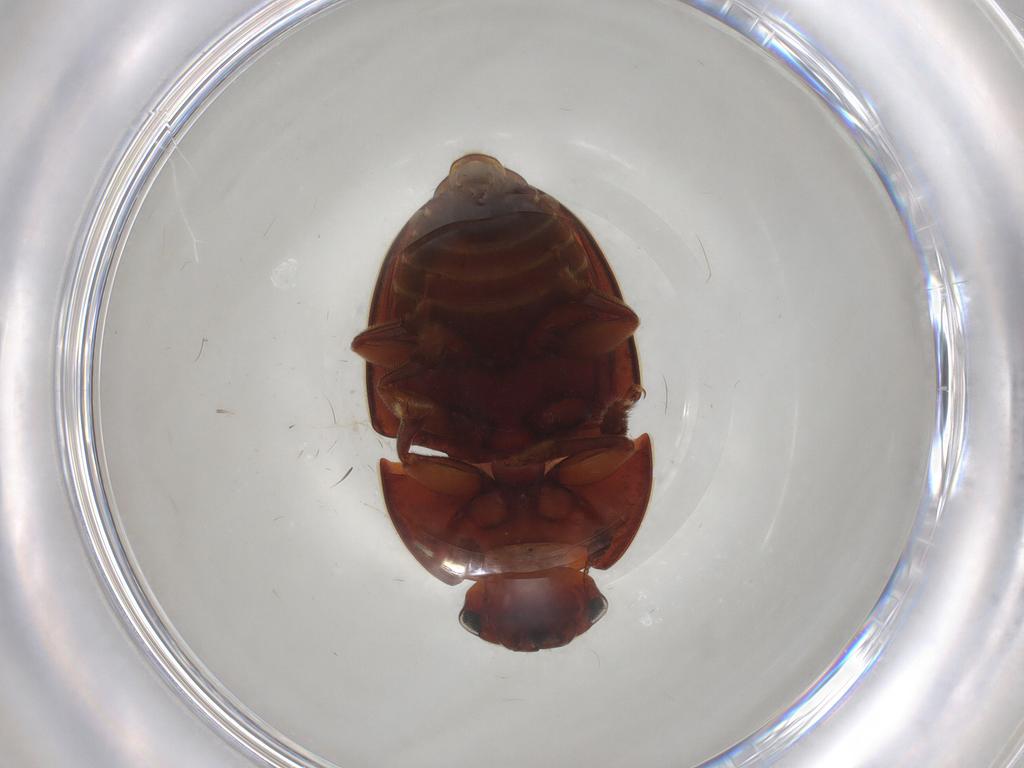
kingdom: Animalia
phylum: Arthropoda
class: Insecta
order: Coleoptera
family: Nitidulidae
